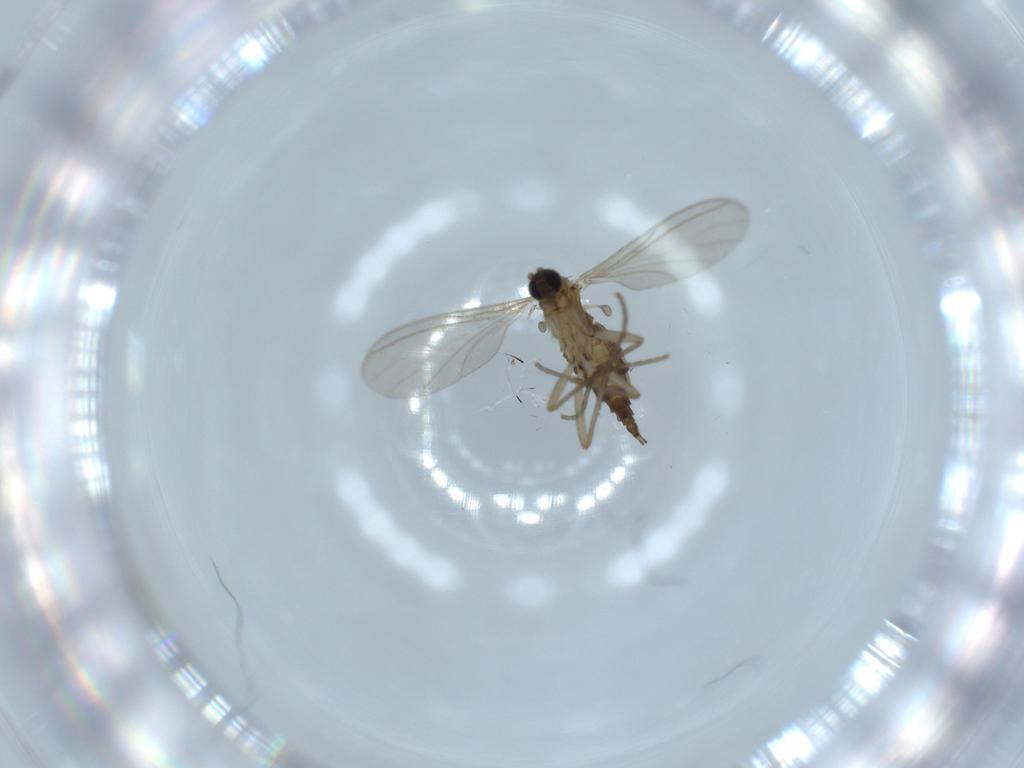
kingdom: Animalia
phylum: Arthropoda
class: Insecta
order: Diptera
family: Sciaridae
